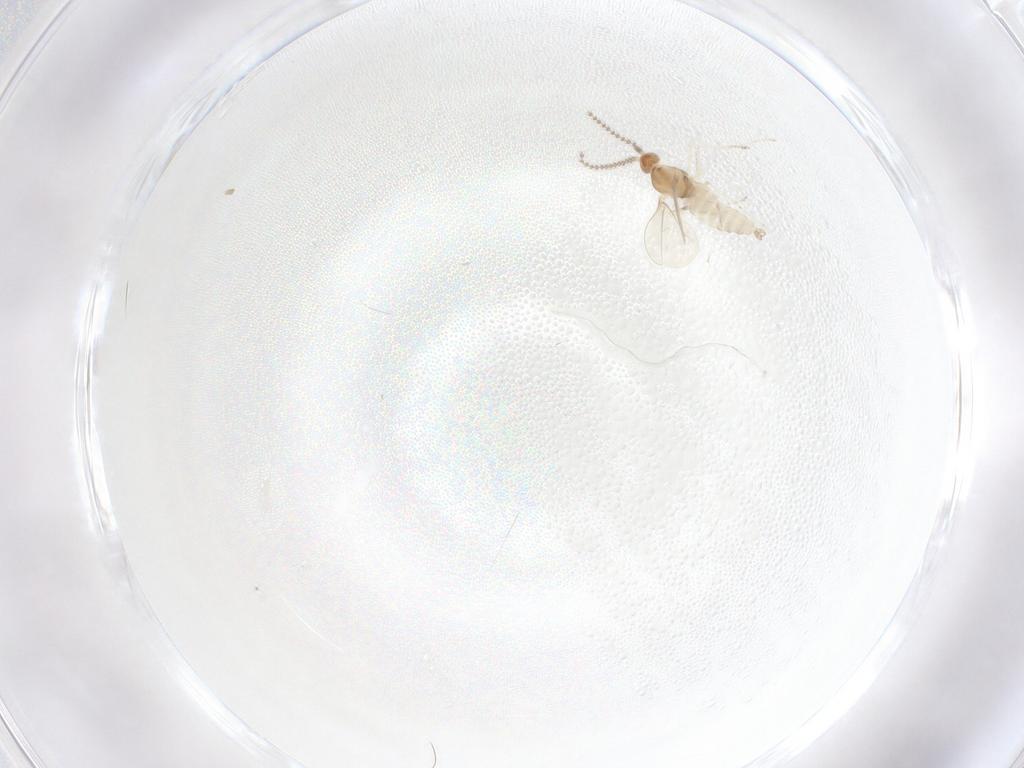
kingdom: Animalia
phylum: Arthropoda
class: Insecta
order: Diptera
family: Cecidomyiidae
